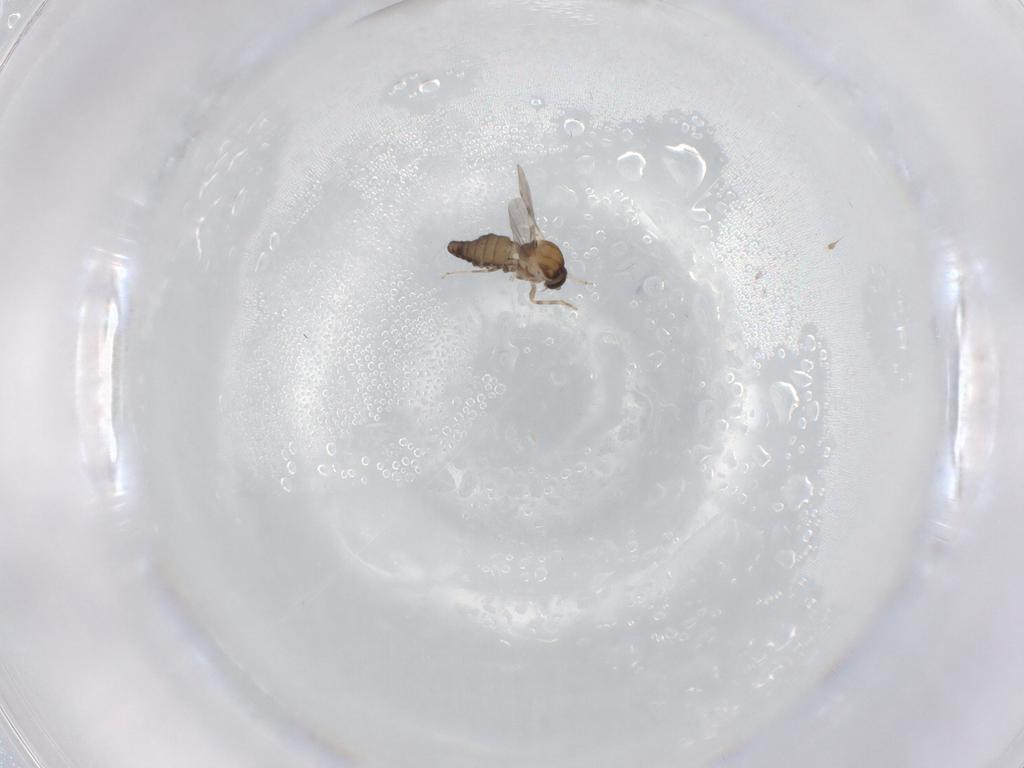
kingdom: Animalia
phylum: Arthropoda
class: Insecta
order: Diptera
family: Ceratopogonidae
